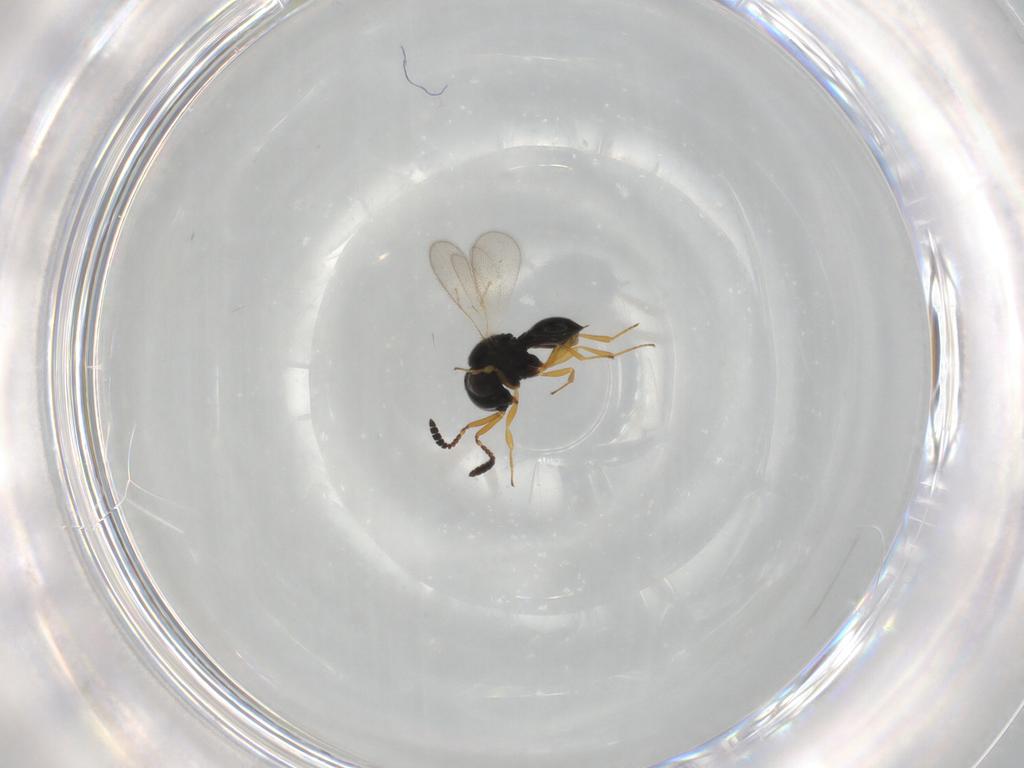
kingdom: Animalia
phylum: Arthropoda
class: Insecta
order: Hymenoptera
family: Scelionidae
